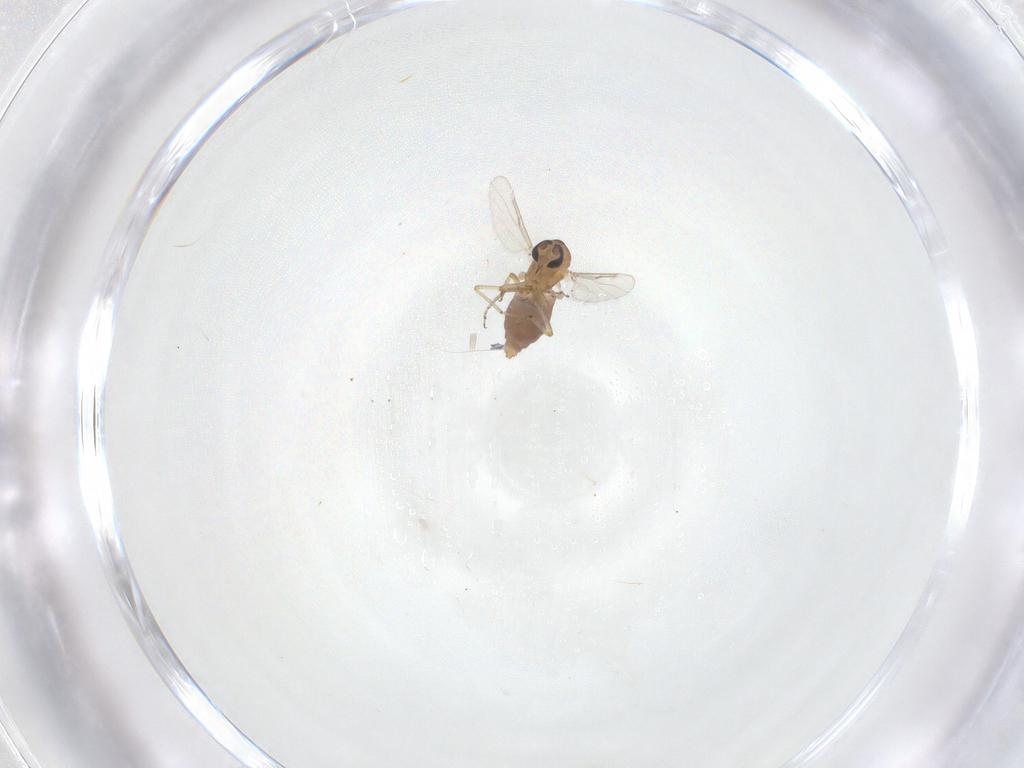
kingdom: Animalia
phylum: Arthropoda
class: Insecta
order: Diptera
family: Ceratopogonidae
